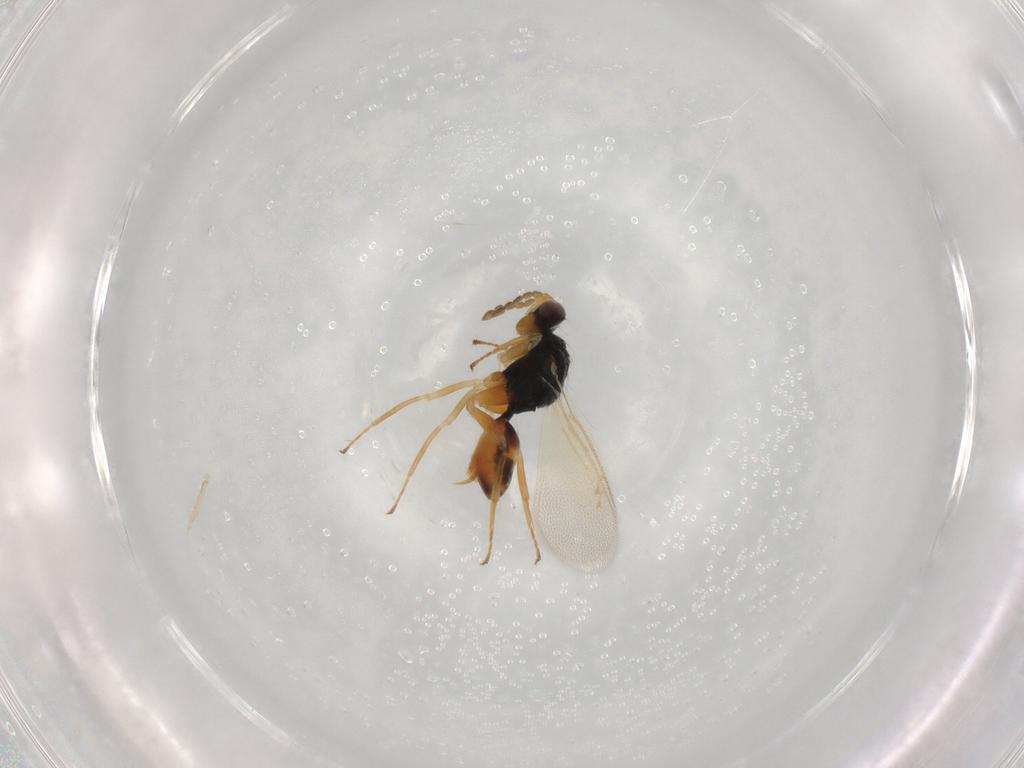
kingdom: Animalia
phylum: Arthropoda
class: Insecta
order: Hymenoptera
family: Eulophidae
